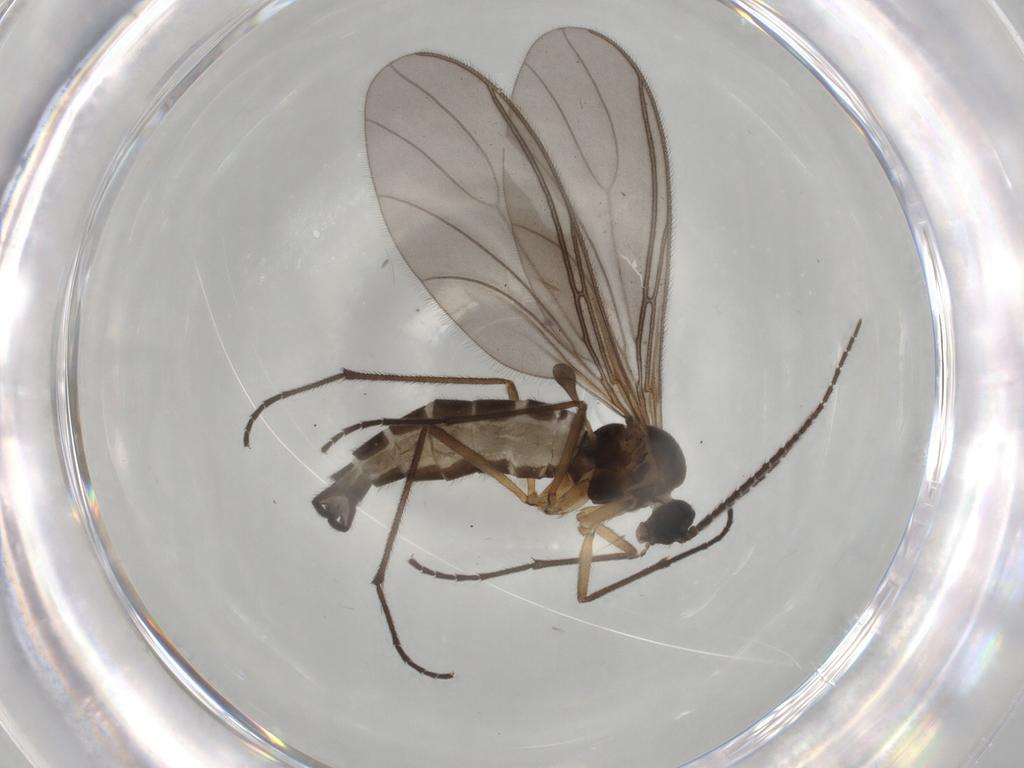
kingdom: Animalia
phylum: Arthropoda
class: Insecta
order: Diptera
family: Sciaridae
